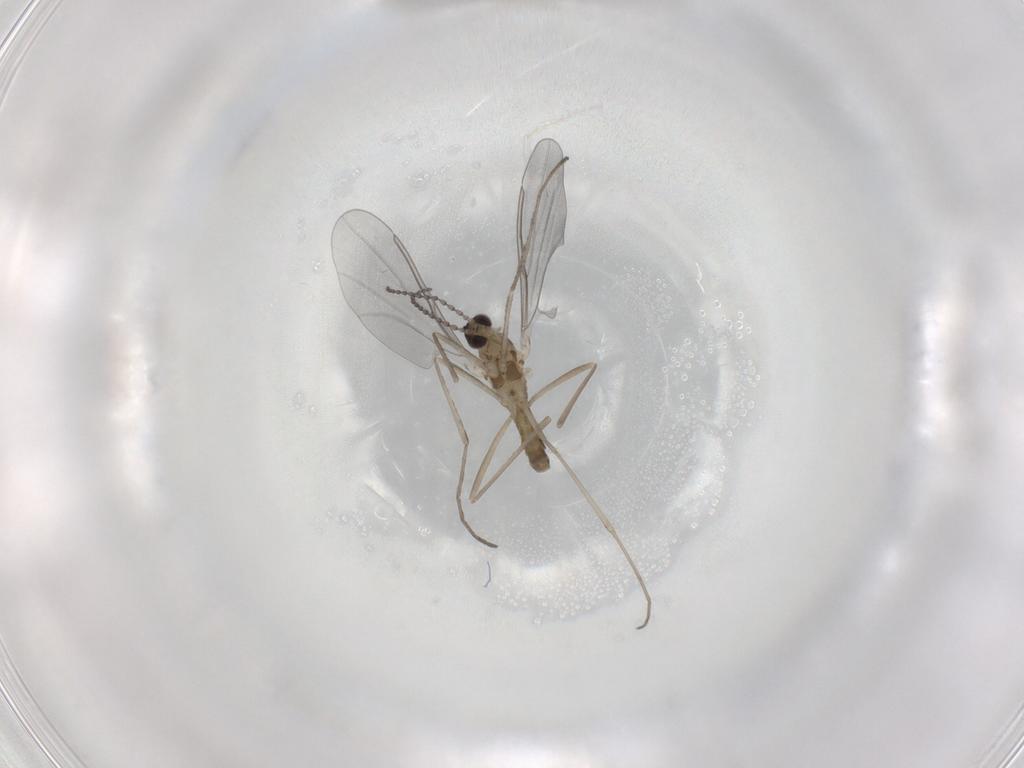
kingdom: Animalia
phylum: Arthropoda
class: Insecta
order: Diptera
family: Phoridae
